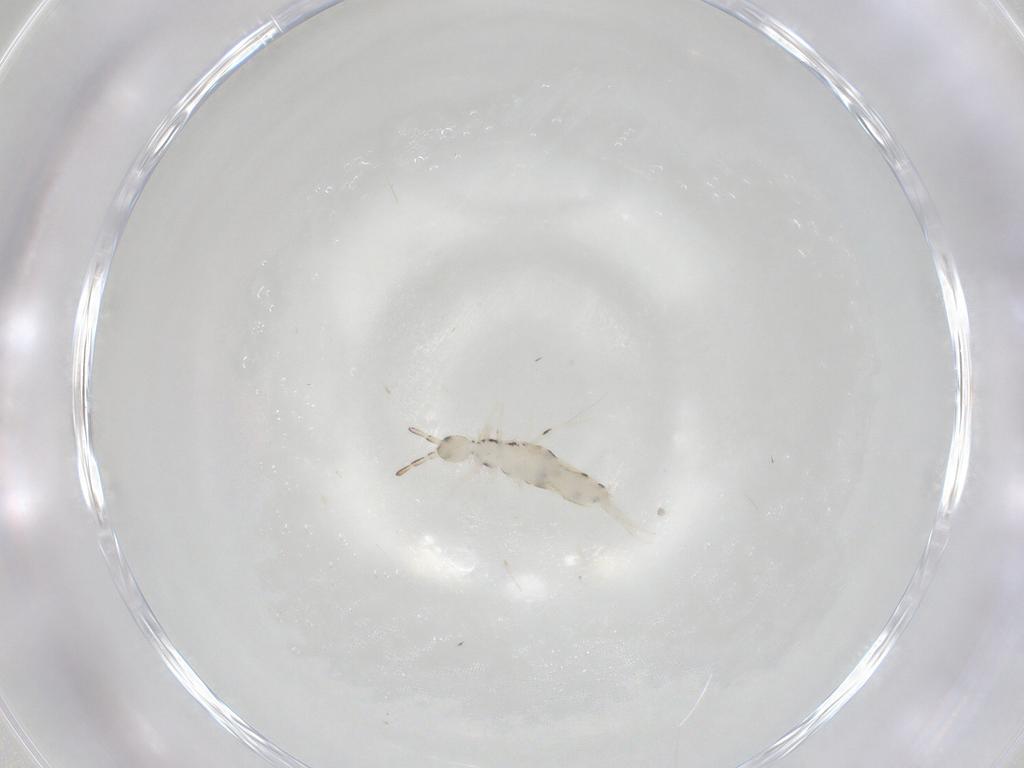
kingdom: Animalia
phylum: Arthropoda
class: Collembola
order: Entomobryomorpha
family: Entomobryidae
